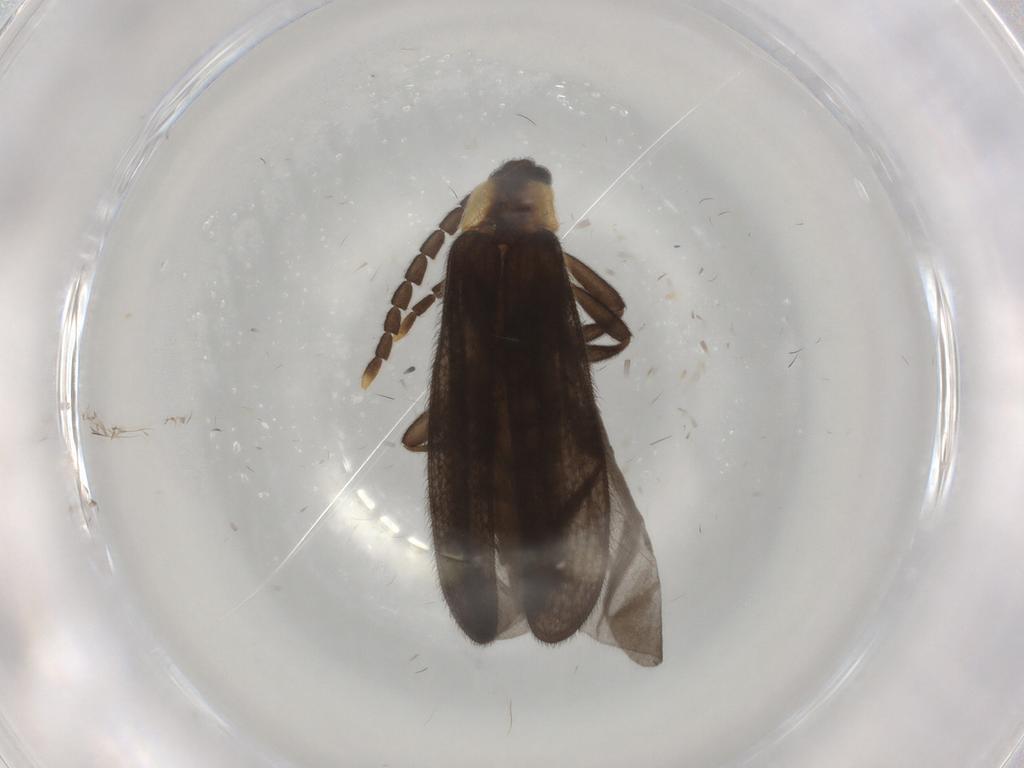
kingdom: Animalia
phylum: Arthropoda
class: Insecta
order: Coleoptera
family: Lycidae
